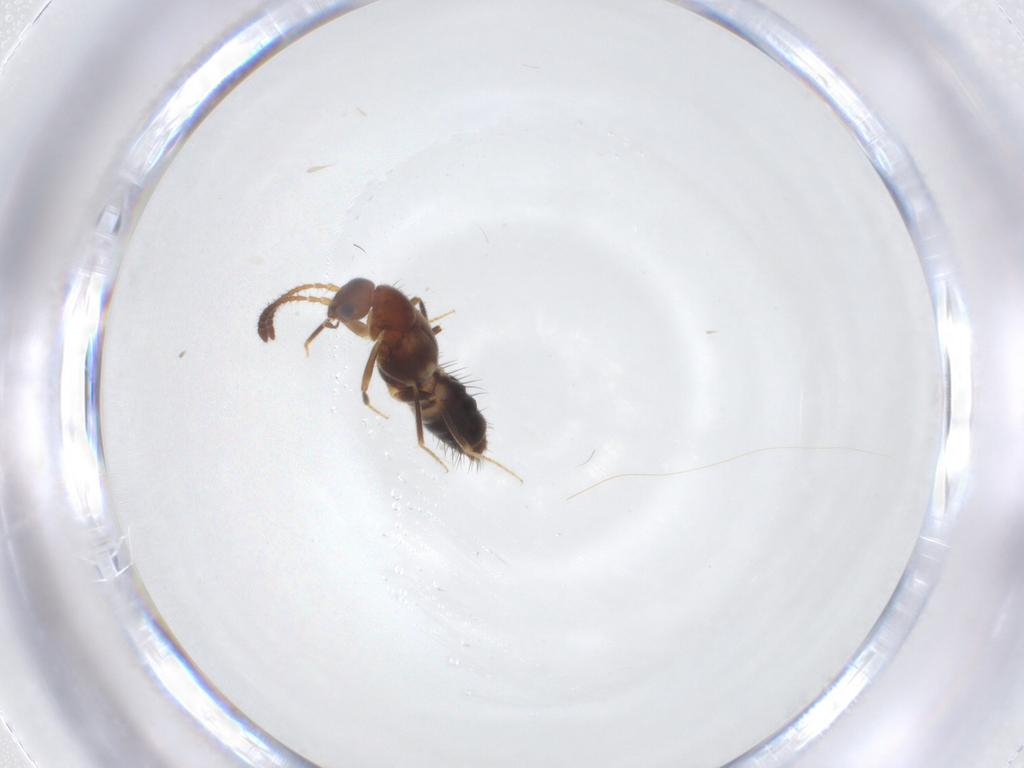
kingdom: Animalia
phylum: Arthropoda
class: Insecta
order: Coleoptera
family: Staphylinidae
